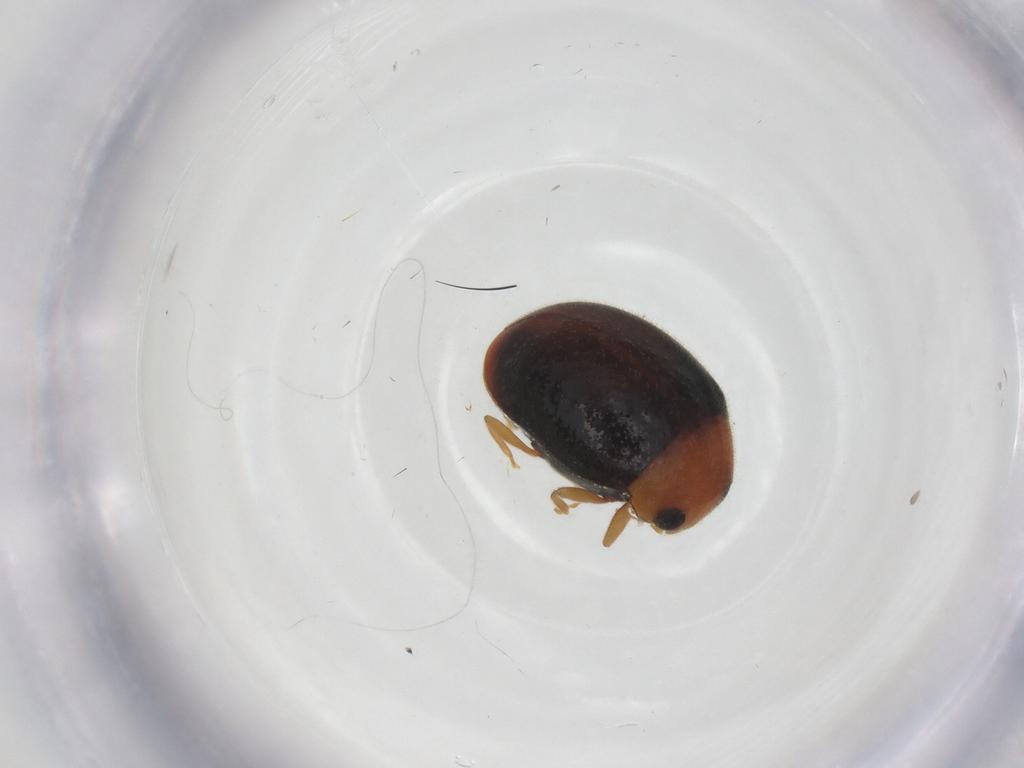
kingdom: Animalia
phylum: Arthropoda
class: Insecta
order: Coleoptera
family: Coccinellidae
